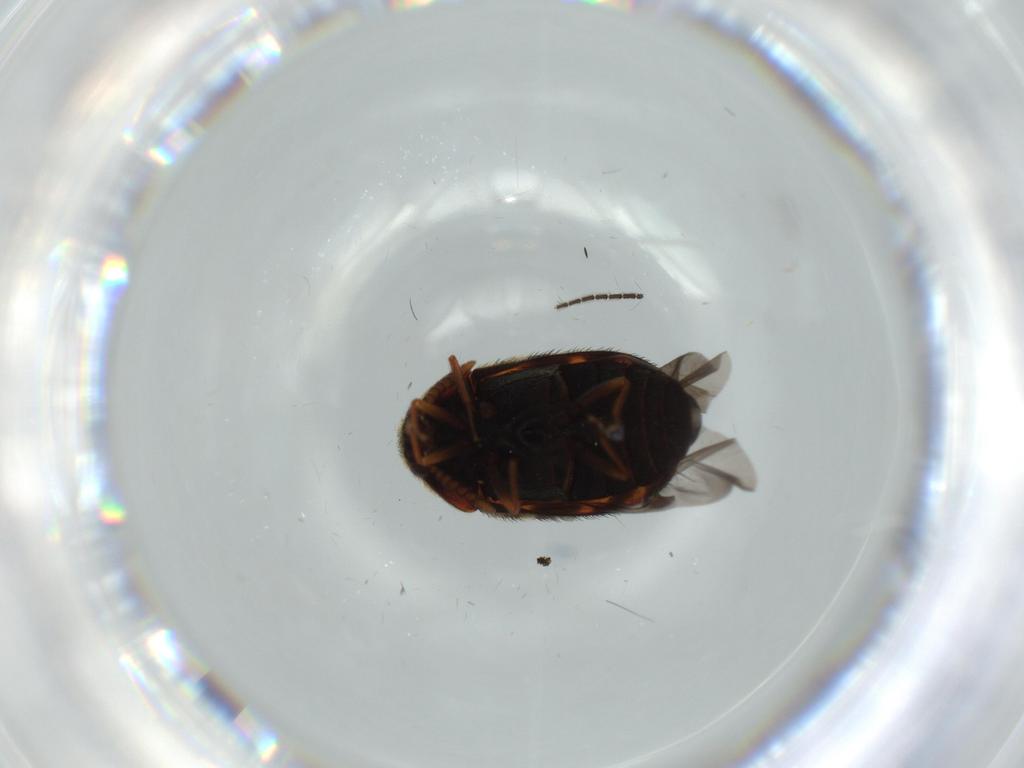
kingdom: Animalia
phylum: Arthropoda
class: Insecta
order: Coleoptera
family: Dermestidae
